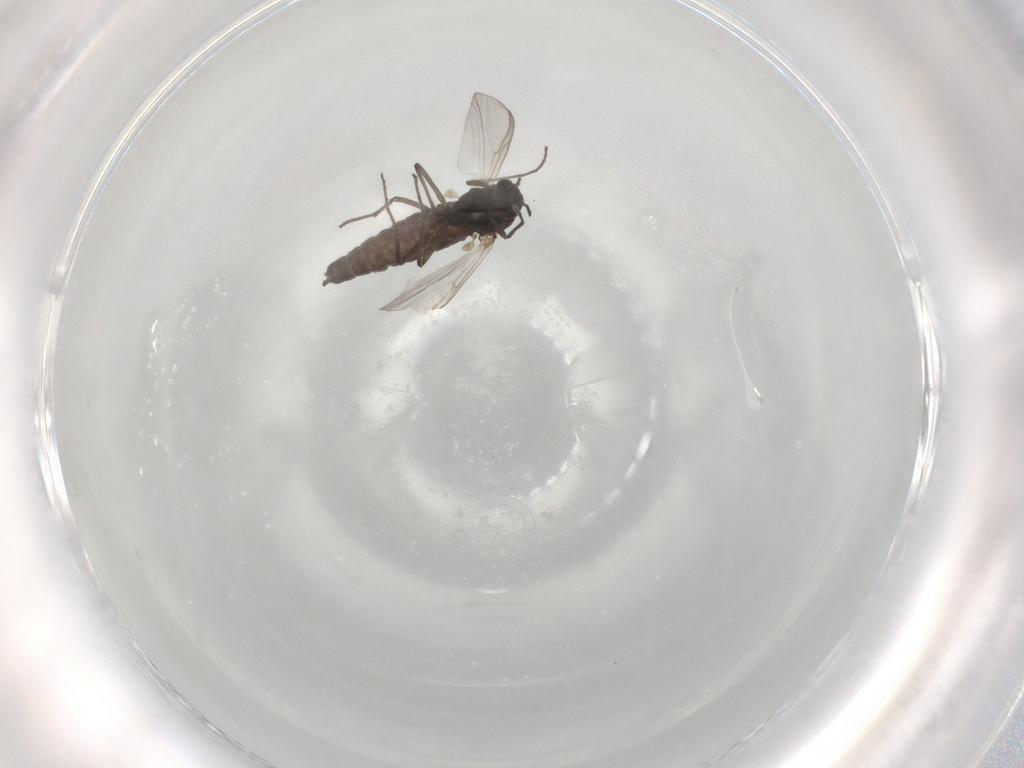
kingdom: Animalia
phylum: Arthropoda
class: Insecta
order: Diptera
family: Chironomidae
